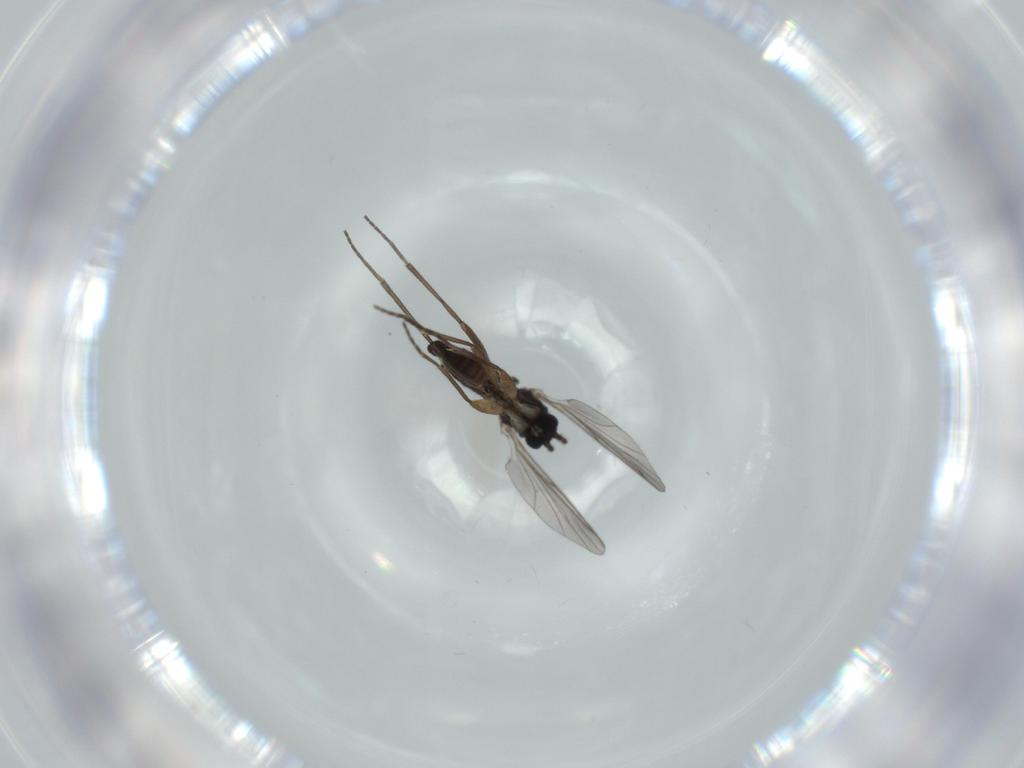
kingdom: Animalia
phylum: Arthropoda
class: Insecta
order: Diptera
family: Sciaridae
